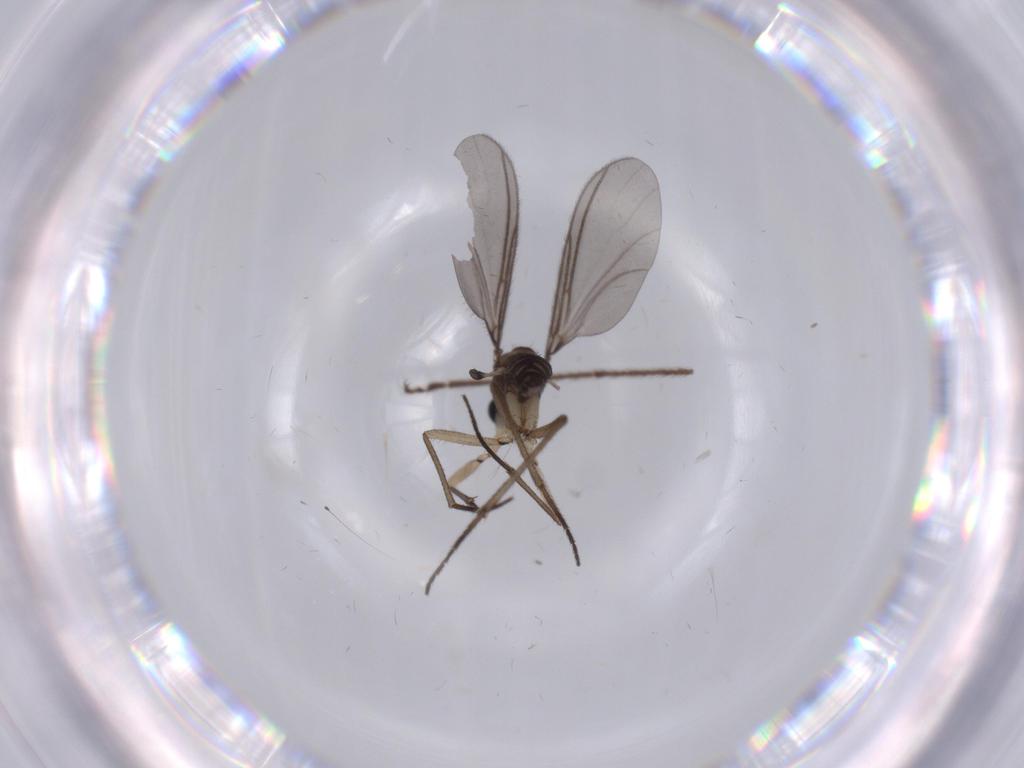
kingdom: Animalia
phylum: Arthropoda
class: Insecta
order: Diptera
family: Sciaridae
